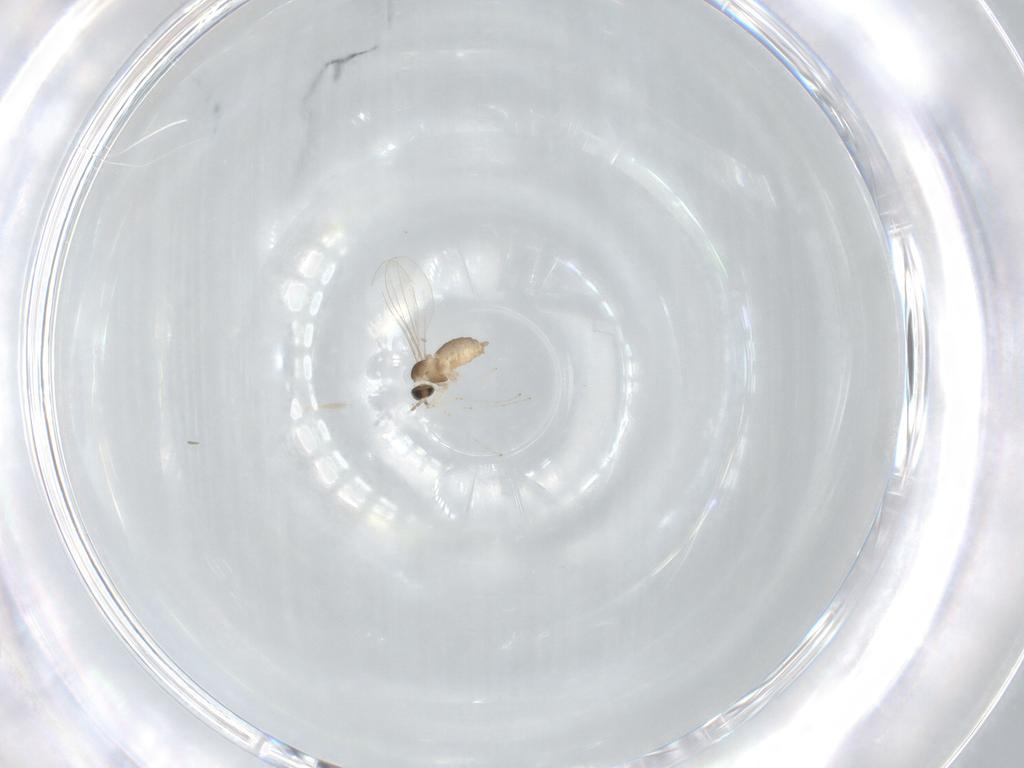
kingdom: Animalia
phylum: Arthropoda
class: Insecta
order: Diptera
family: Cecidomyiidae
